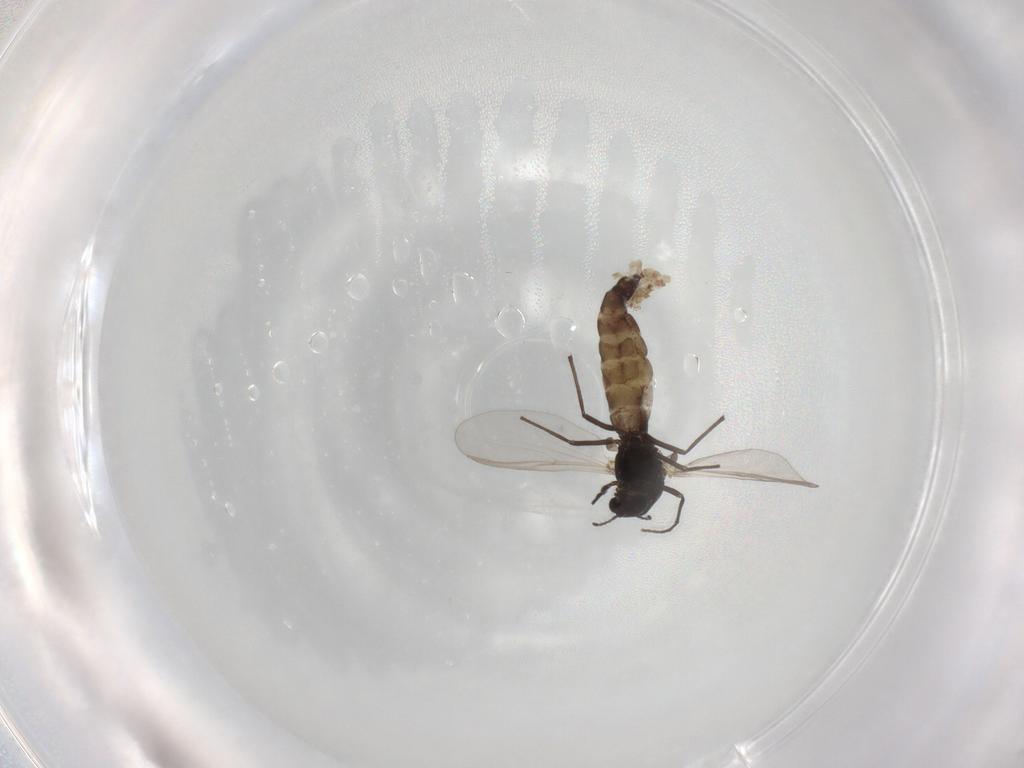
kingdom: Animalia
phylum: Arthropoda
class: Insecta
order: Diptera
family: Chironomidae
